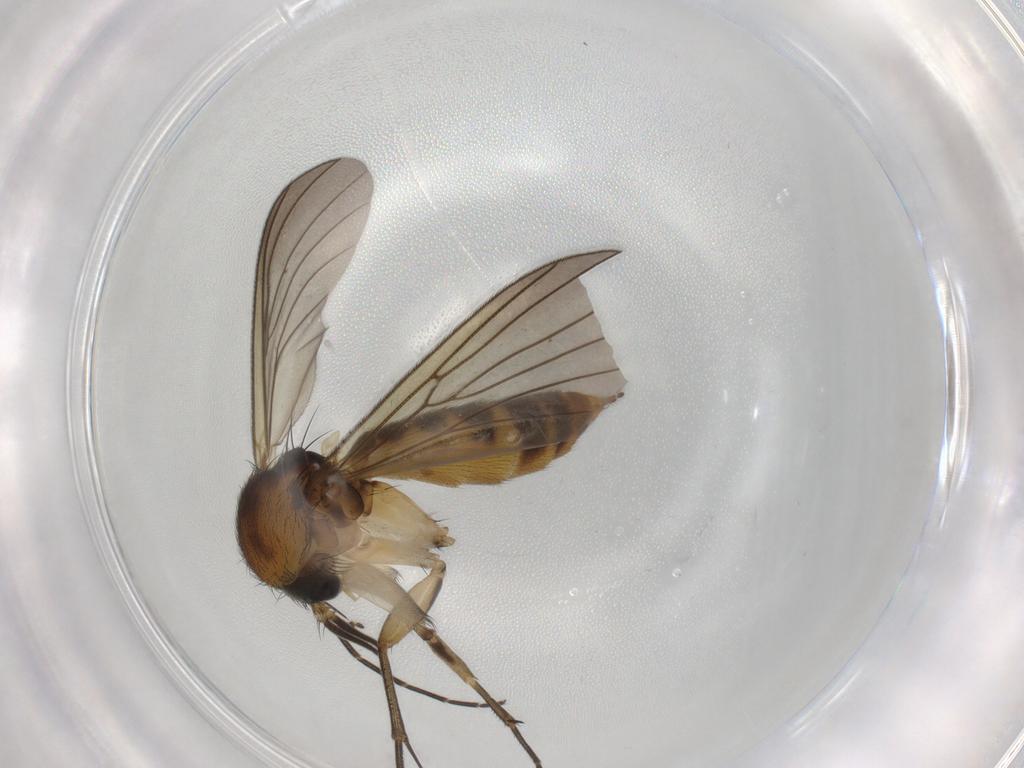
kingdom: Animalia
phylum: Arthropoda
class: Insecta
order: Diptera
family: Mycetophilidae
